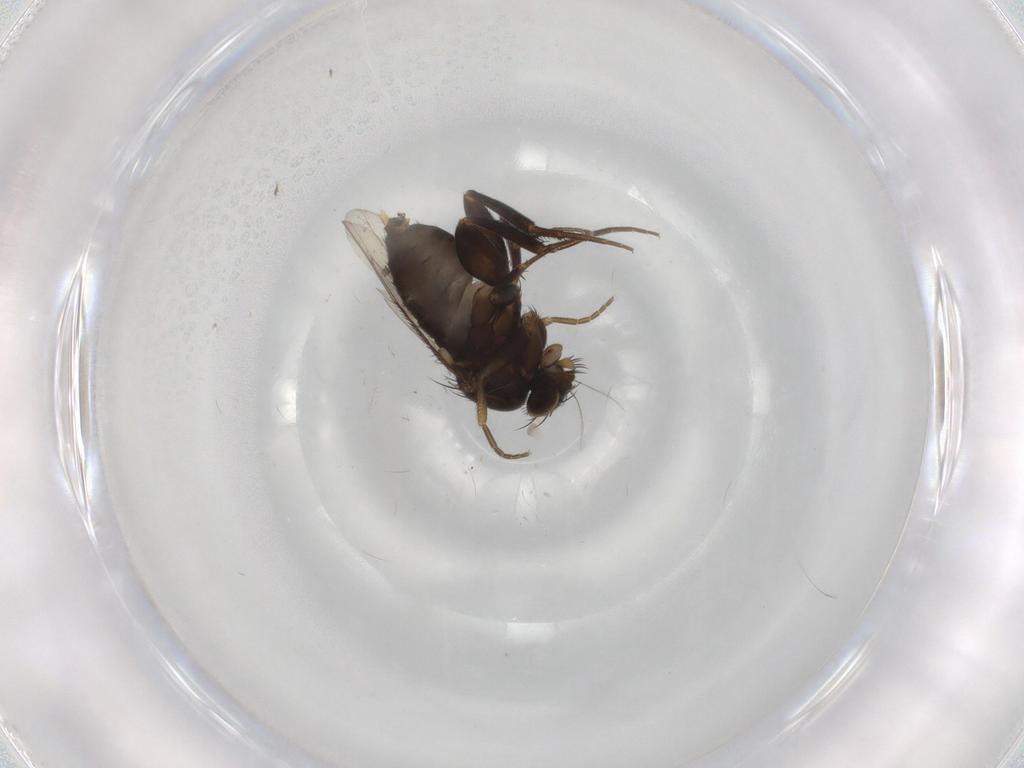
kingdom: Animalia
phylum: Arthropoda
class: Insecta
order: Diptera
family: Phoridae
